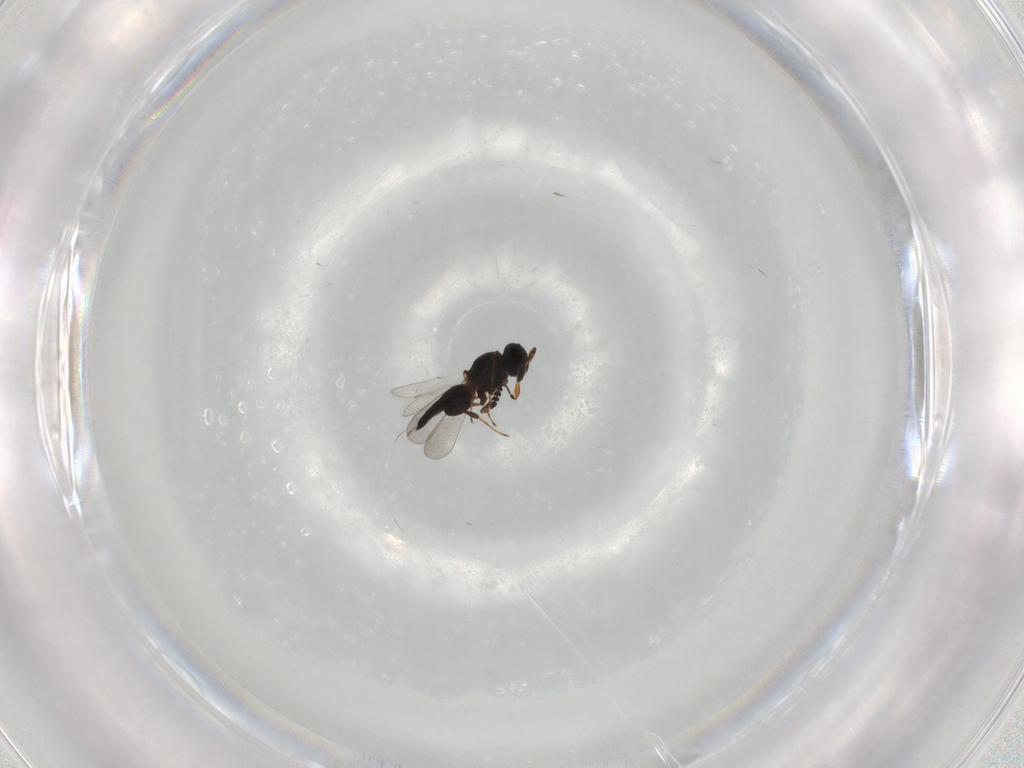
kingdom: Animalia
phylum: Arthropoda
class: Insecta
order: Hymenoptera
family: Platygastridae
